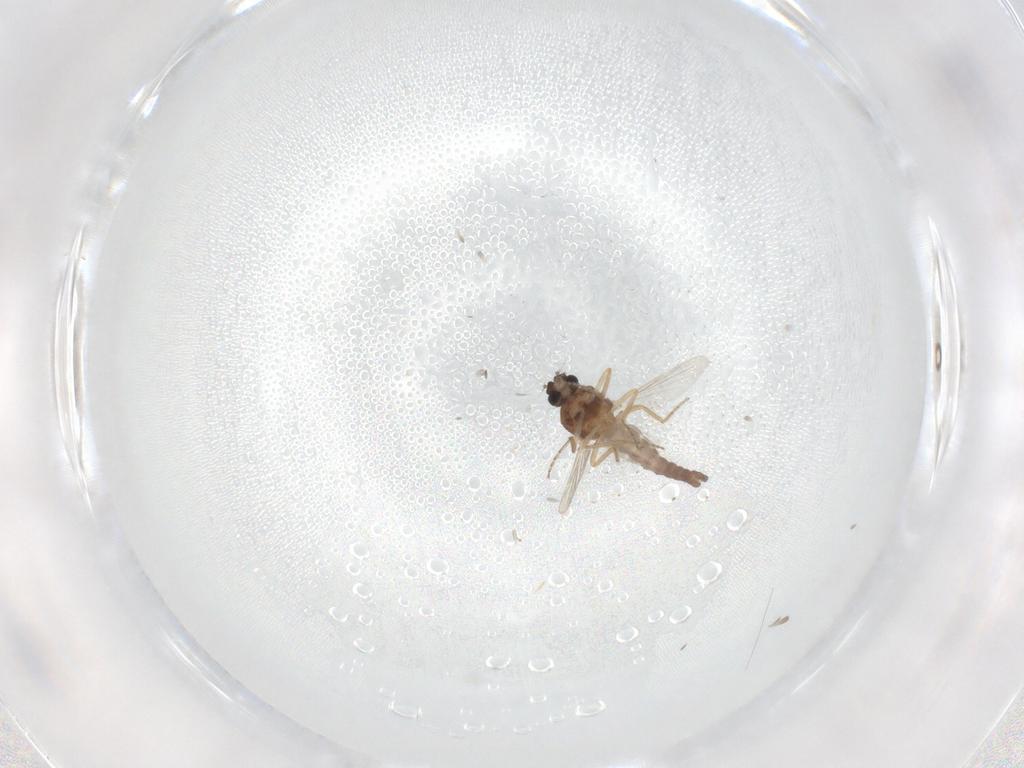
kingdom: Animalia
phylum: Arthropoda
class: Insecta
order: Diptera
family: Ceratopogonidae
